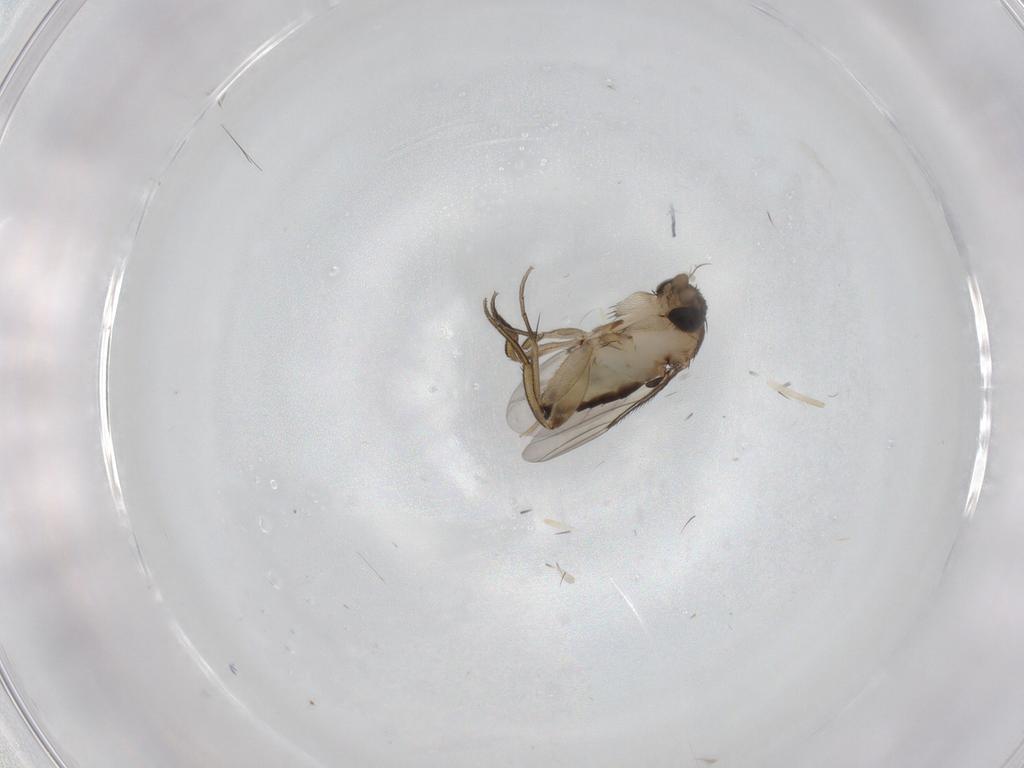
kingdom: Animalia
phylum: Arthropoda
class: Insecta
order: Diptera
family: Phoridae
